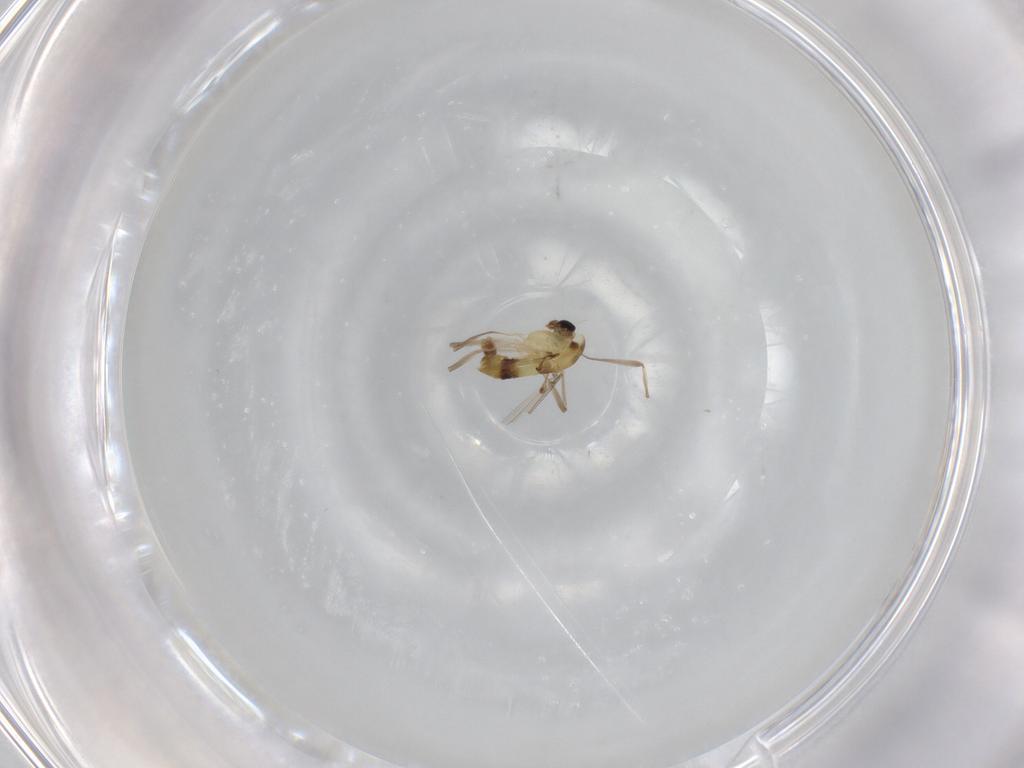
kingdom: Animalia
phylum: Arthropoda
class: Insecta
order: Diptera
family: Chironomidae
